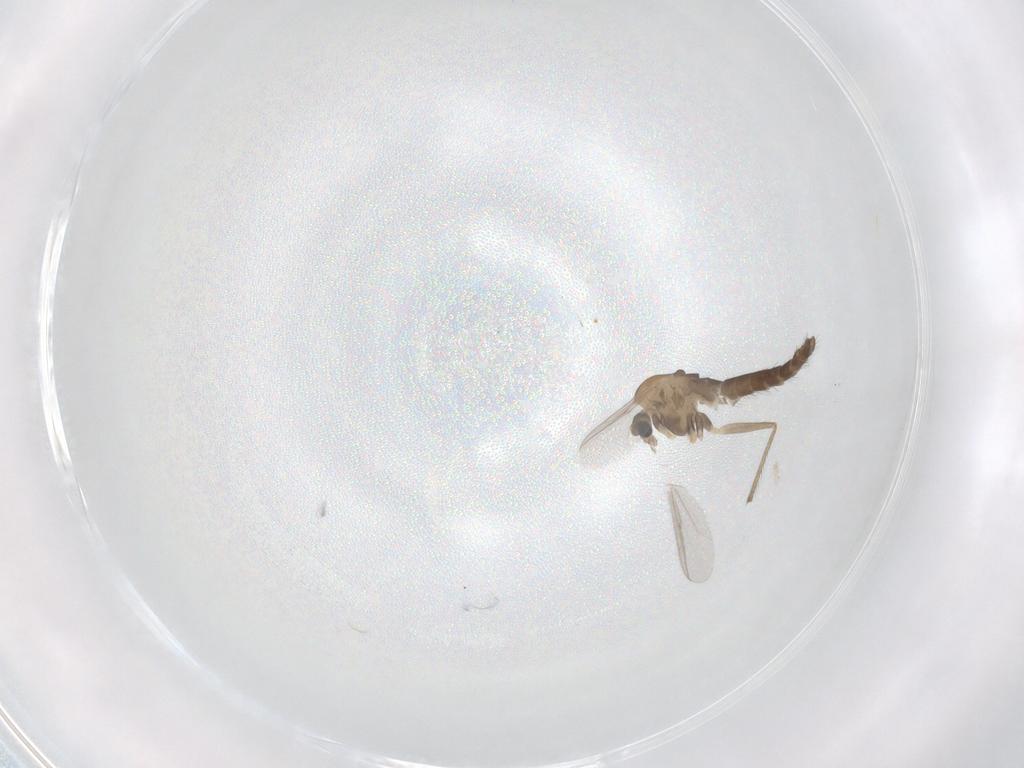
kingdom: Animalia
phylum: Arthropoda
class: Insecta
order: Diptera
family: Chironomidae
